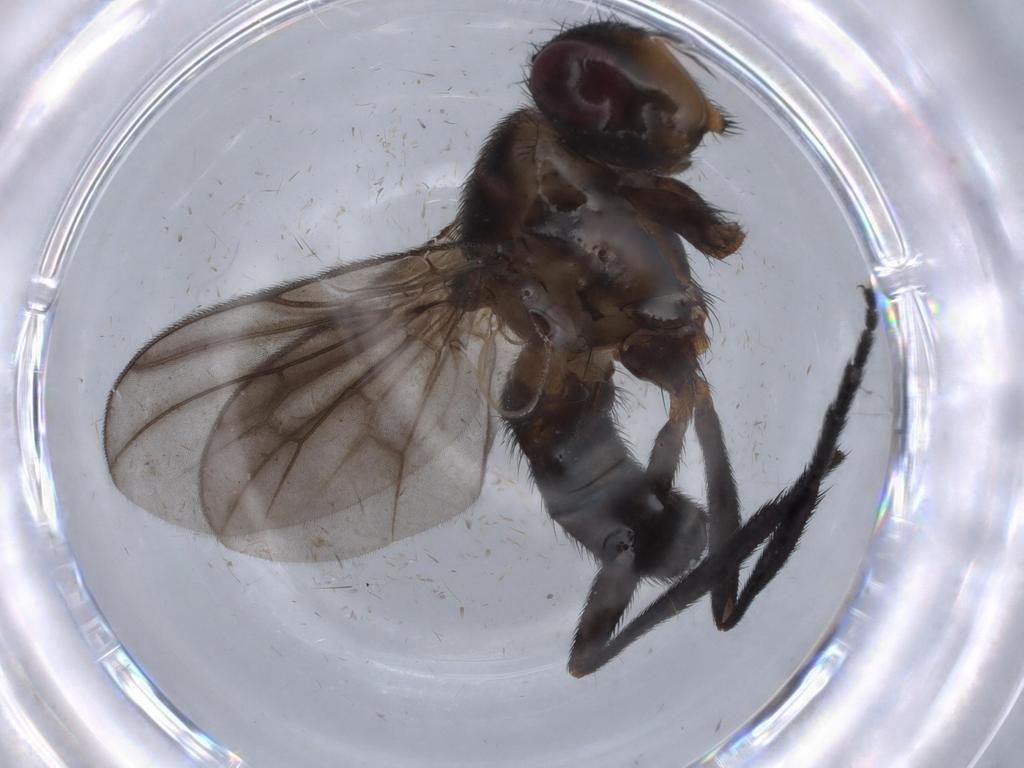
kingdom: Animalia
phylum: Arthropoda
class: Insecta
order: Diptera
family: Calliphoridae
